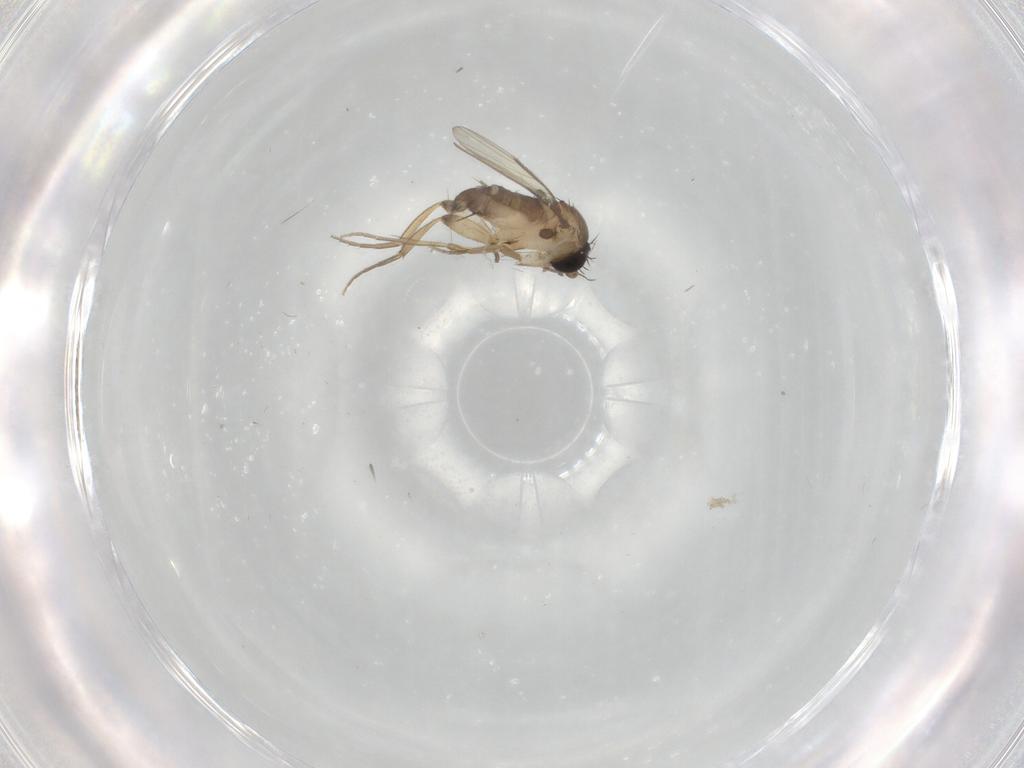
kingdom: Animalia
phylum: Arthropoda
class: Insecta
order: Diptera
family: Phoridae
